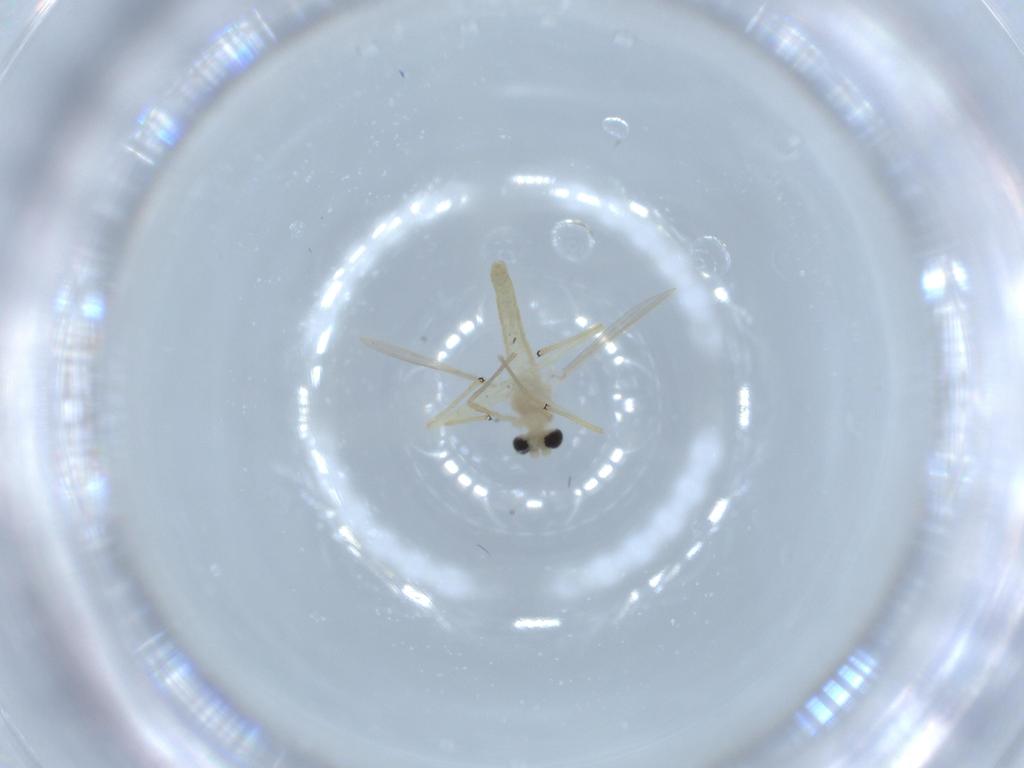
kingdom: Animalia
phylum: Arthropoda
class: Insecta
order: Diptera
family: Chironomidae
